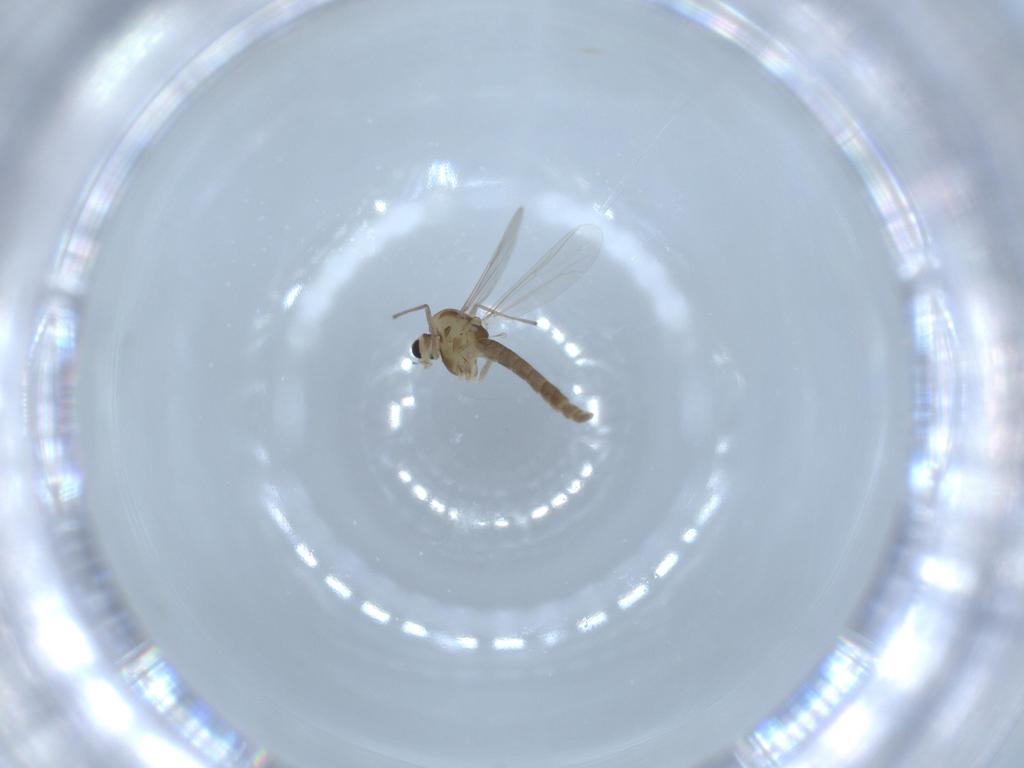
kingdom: Animalia
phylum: Arthropoda
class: Insecta
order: Diptera
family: Chironomidae
